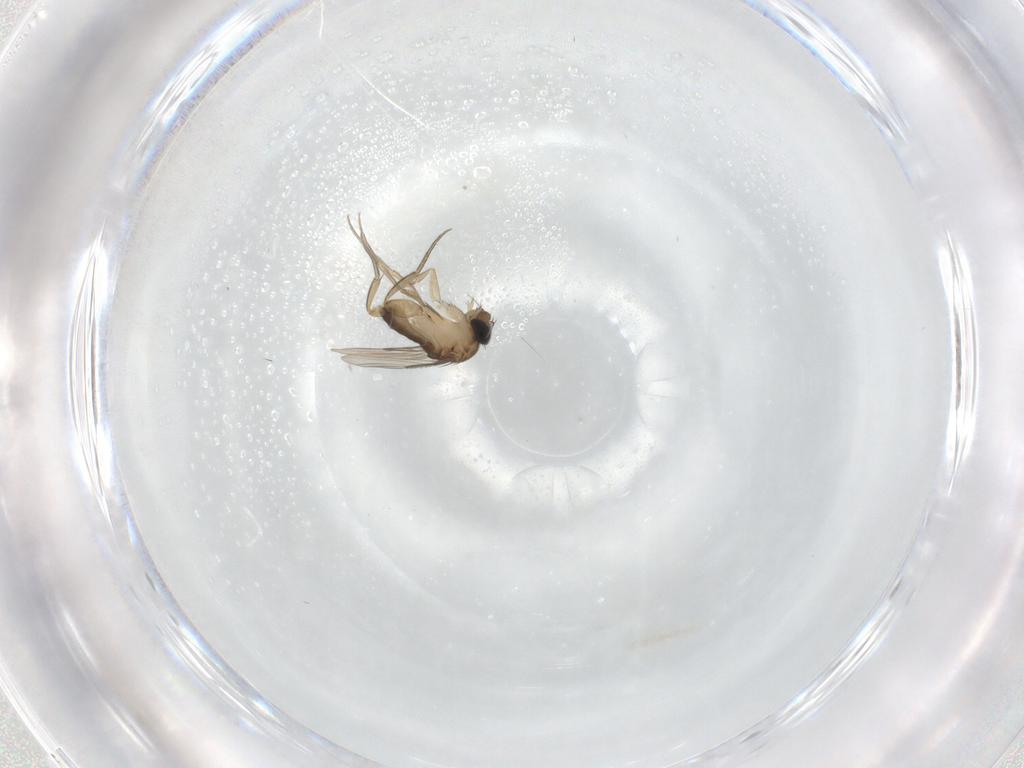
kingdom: Animalia
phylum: Arthropoda
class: Insecta
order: Diptera
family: Phoridae
